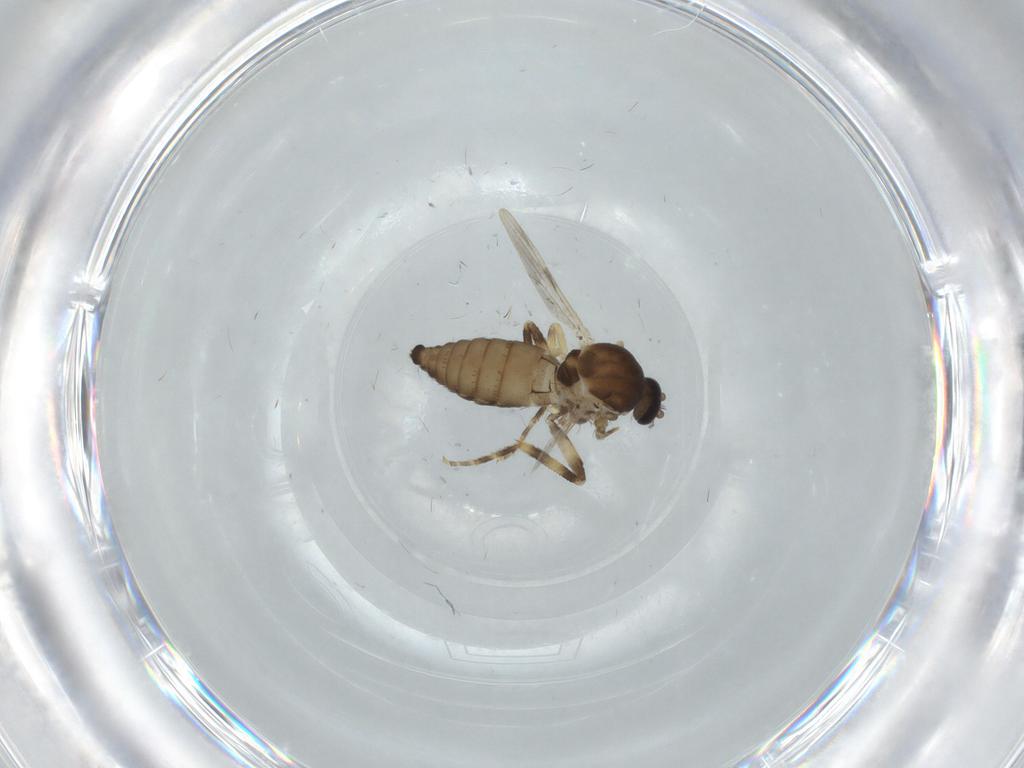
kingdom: Animalia
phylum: Arthropoda
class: Insecta
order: Diptera
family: Ceratopogonidae
